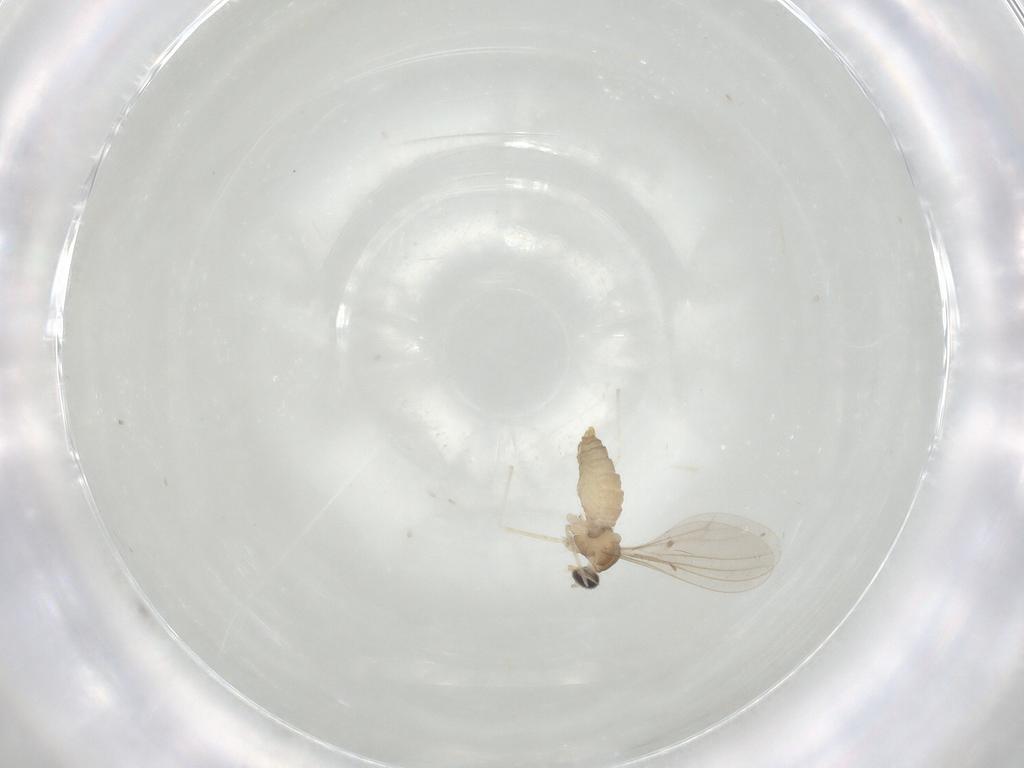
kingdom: Animalia
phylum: Arthropoda
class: Insecta
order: Diptera
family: Cecidomyiidae
